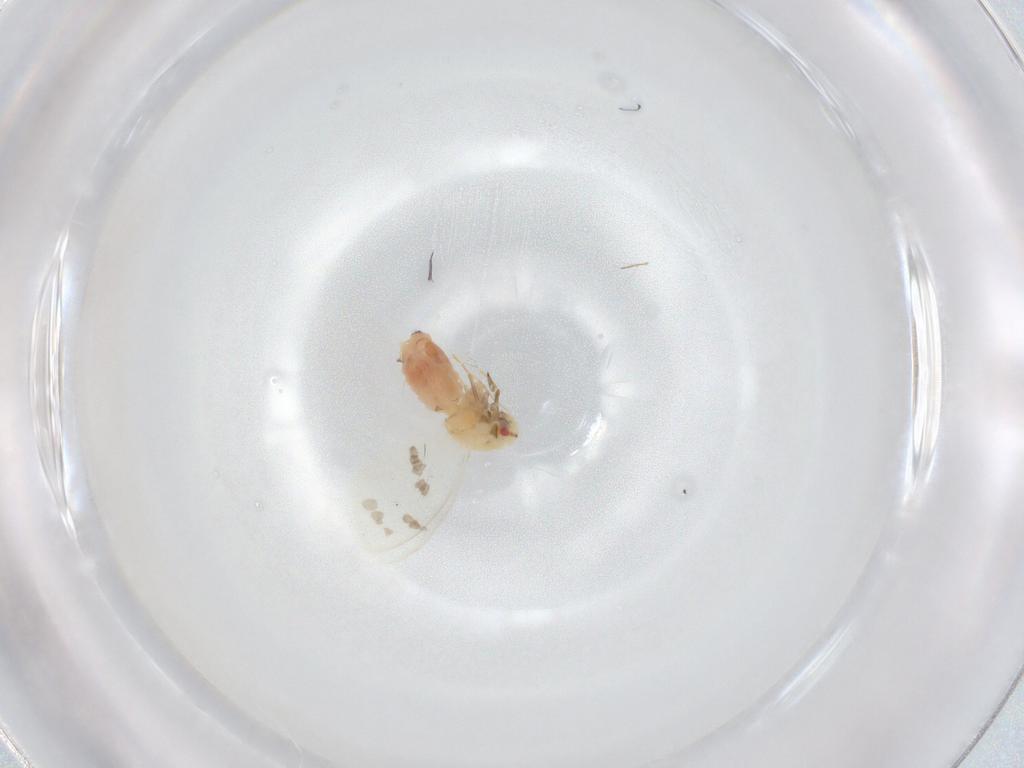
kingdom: Animalia
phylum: Arthropoda
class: Insecta
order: Hemiptera
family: Aleyrodidae
